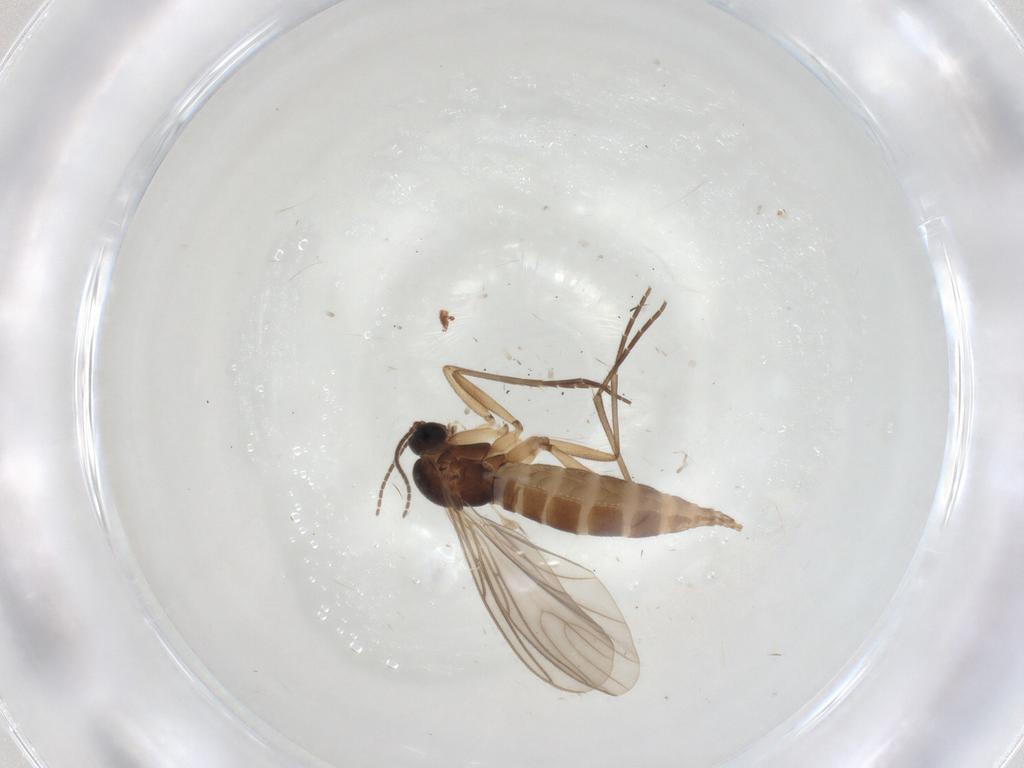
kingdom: Animalia
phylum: Arthropoda
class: Insecta
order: Diptera
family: Sciaridae
